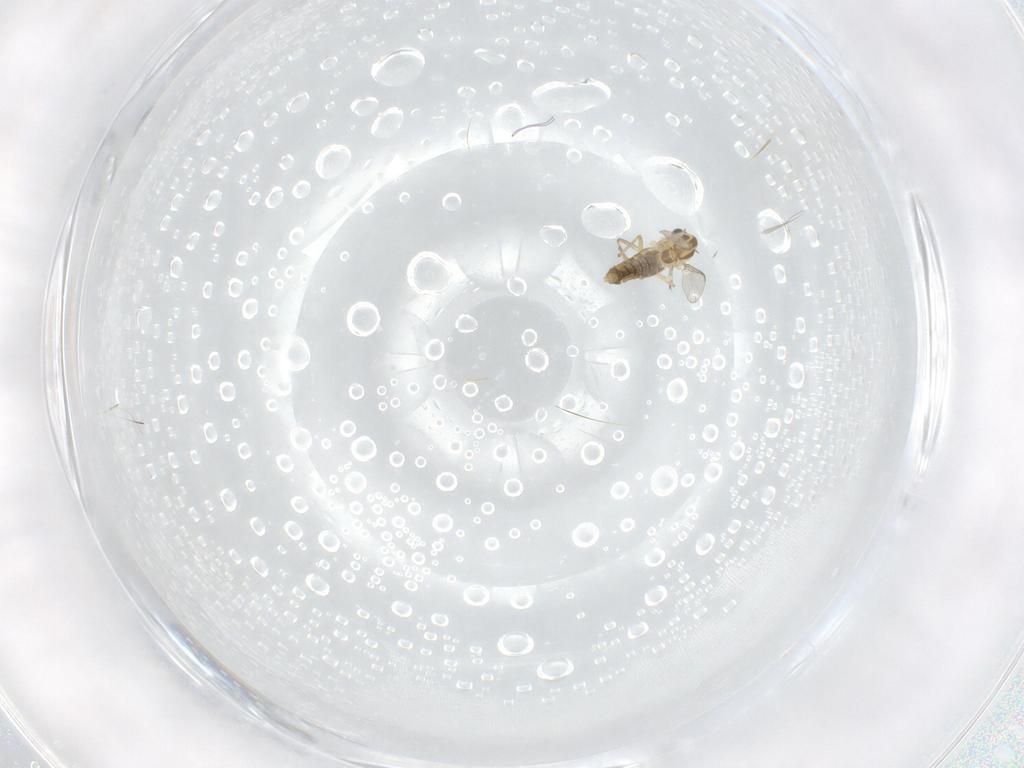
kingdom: Animalia
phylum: Arthropoda
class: Insecta
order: Diptera
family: Chironomidae
